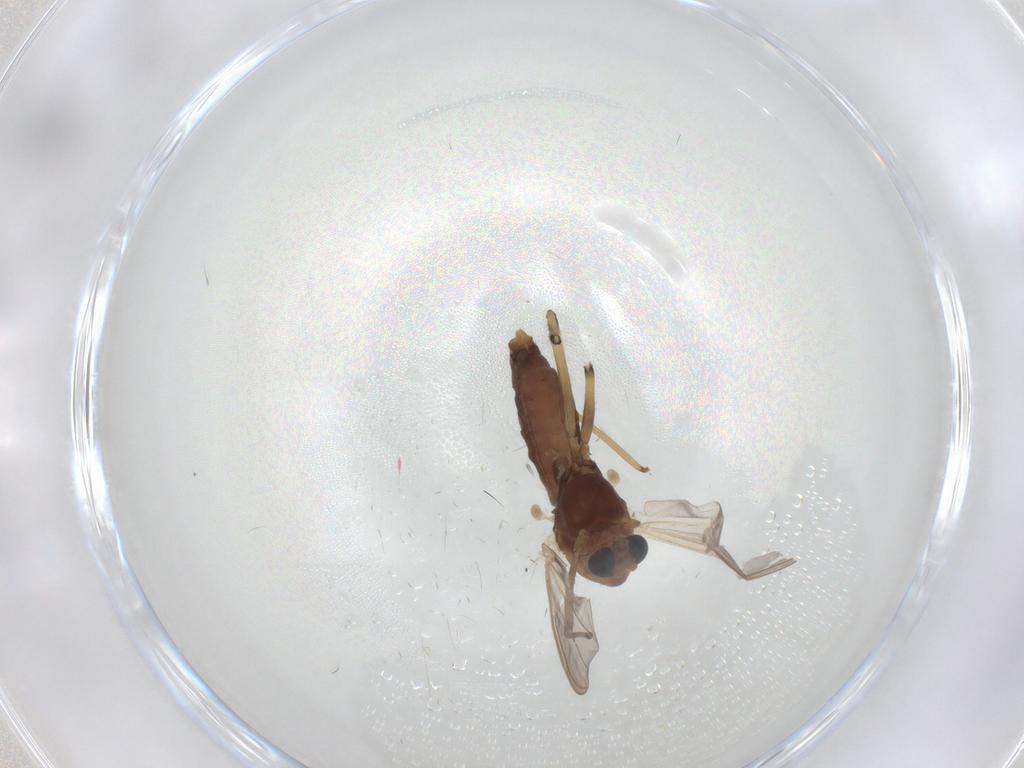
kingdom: Animalia
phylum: Arthropoda
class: Insecta
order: Diptera
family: Chironomidae
